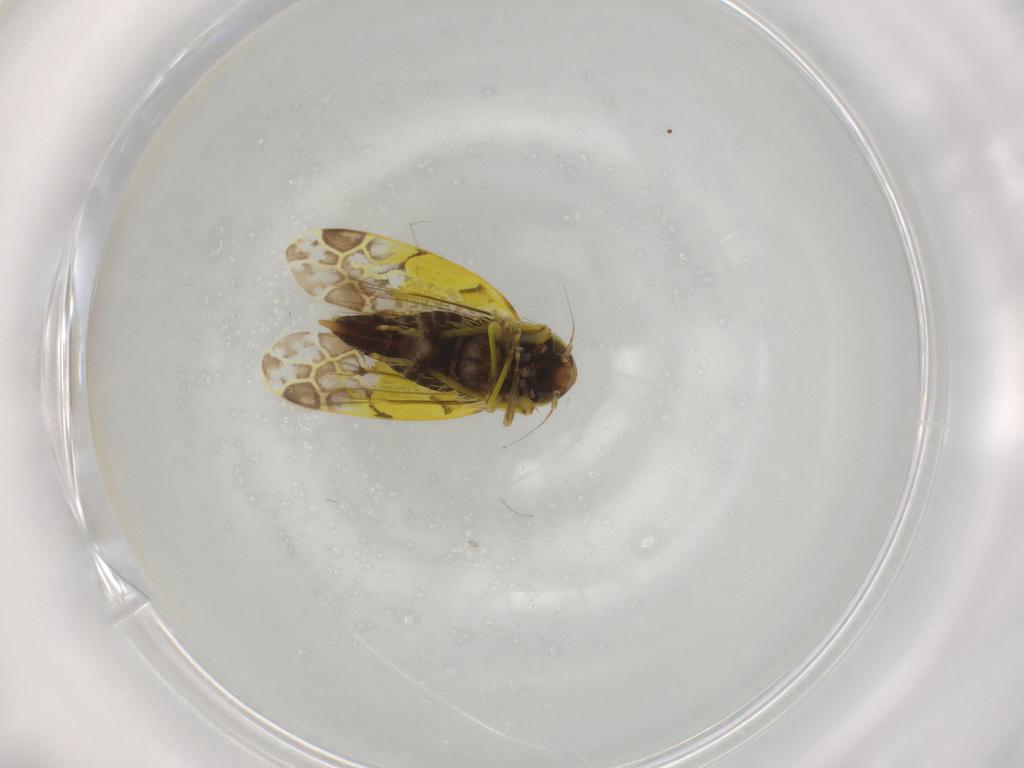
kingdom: Animalia
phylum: Arthropoda
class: Insecta
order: Hemiptera
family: Cicadellidae
